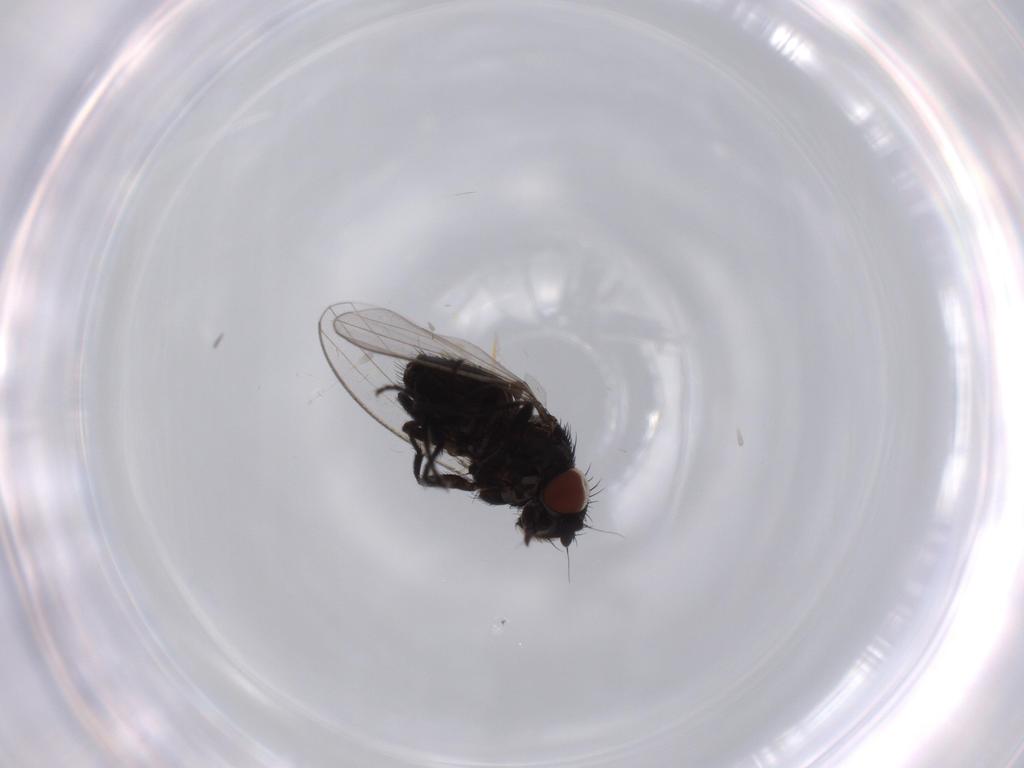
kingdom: Animalia
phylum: Arthropoda
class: Insecta
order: Diptera
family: Milichiidae
